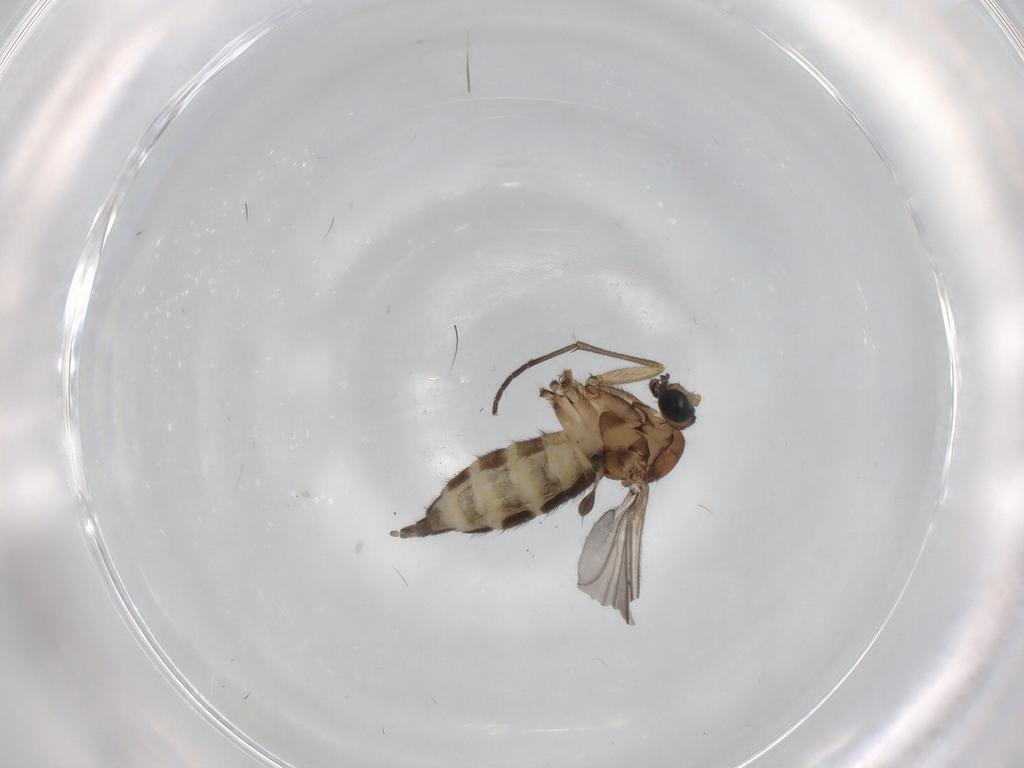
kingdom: Animalia
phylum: Arthropoda
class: Insecta
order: Diptera
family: Sciaridae
